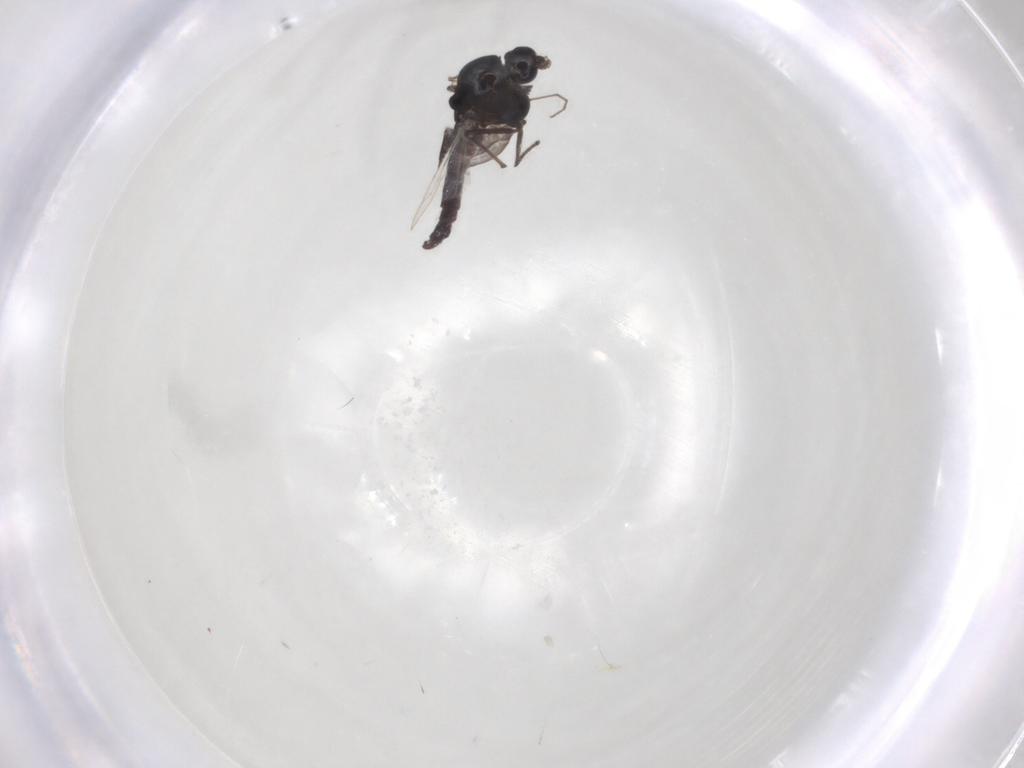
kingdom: Animalia
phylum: Arthropoda
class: Insecta
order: Diptera
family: Chironomidae
